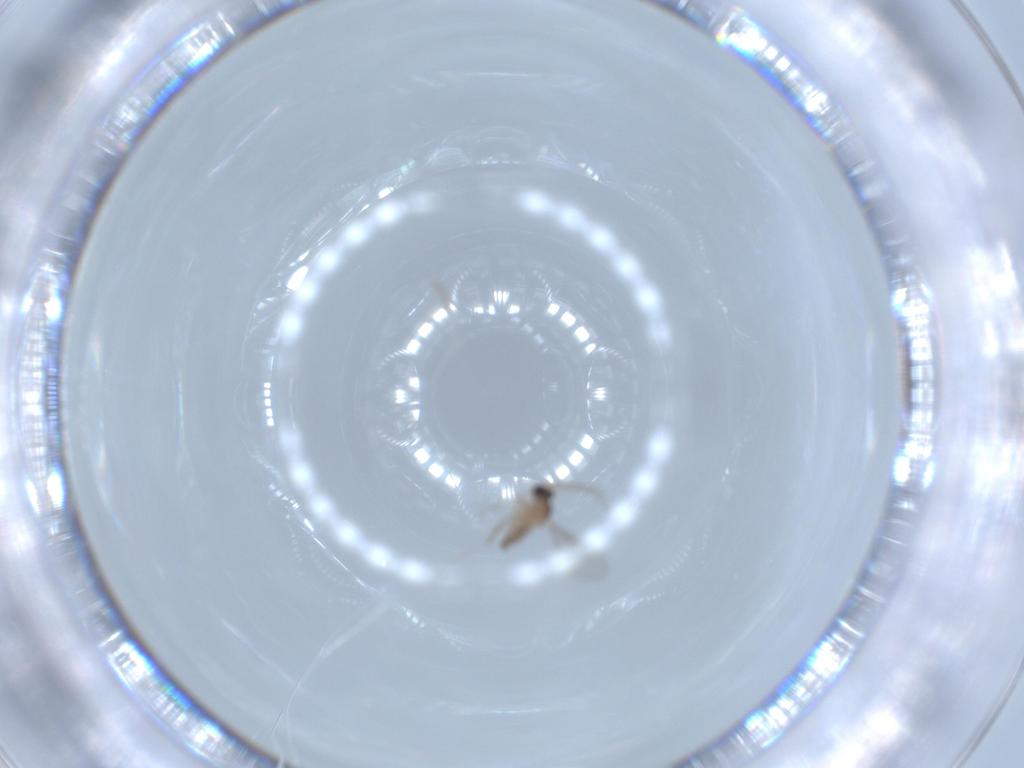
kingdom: Animalia
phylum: Arthropoda
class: Insecta
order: Diptera
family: Cecidomyiidae
